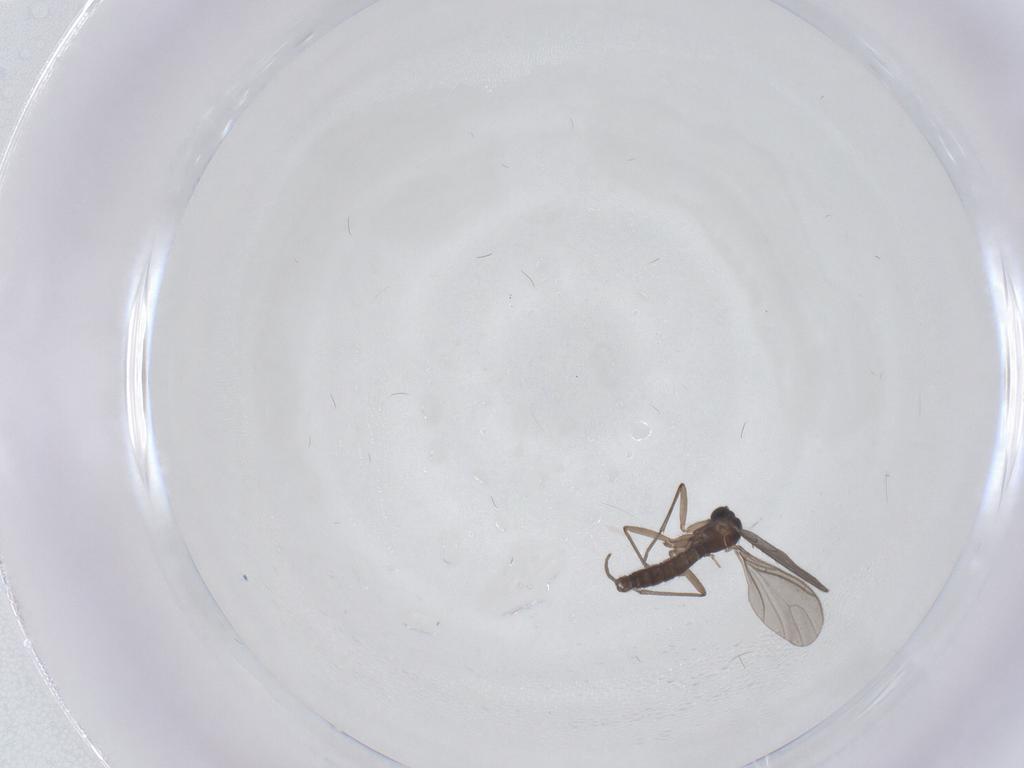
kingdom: Animalia
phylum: Arthropoda
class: Insecta
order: Diptera
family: Sciaridae
